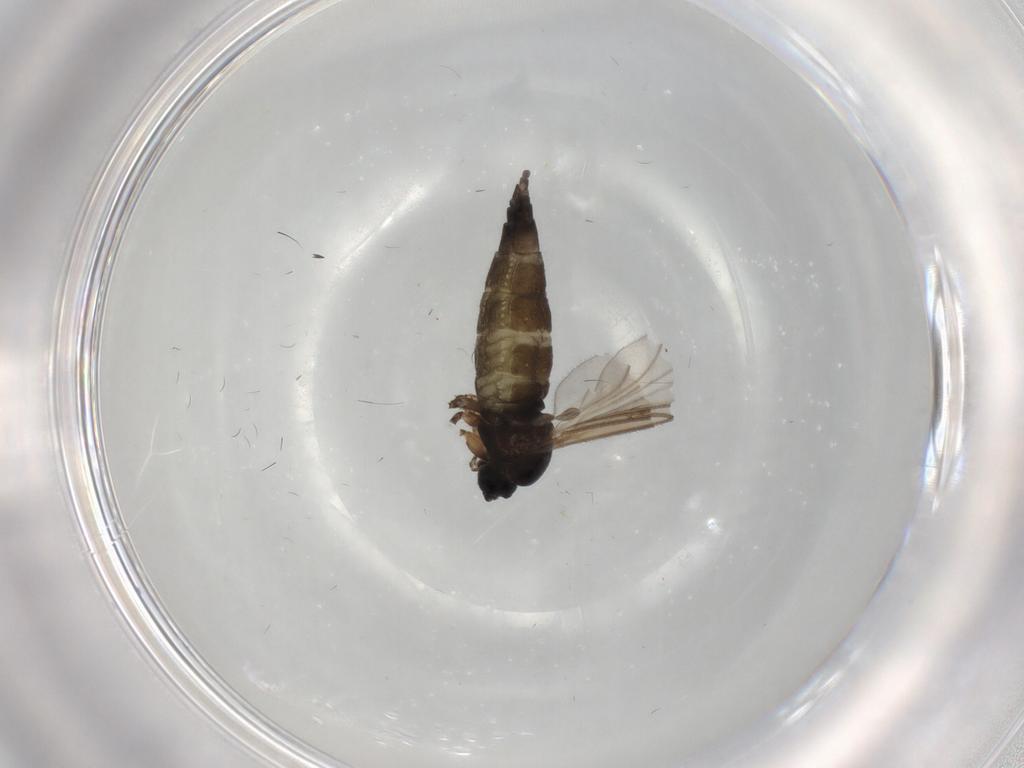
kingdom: Animalia
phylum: Arthropoda
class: Insecta
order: Diptera
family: Sciaridae
